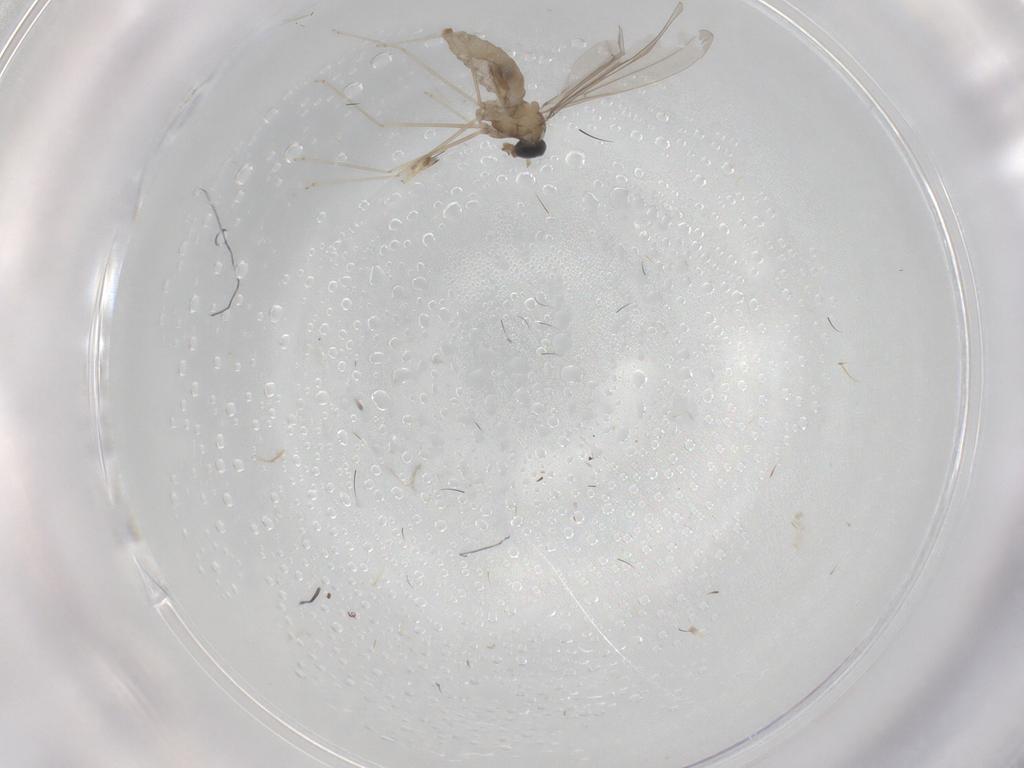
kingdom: Animalia
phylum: Arthropoda
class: Insecta
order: Diptera
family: Cecidomyiidae
